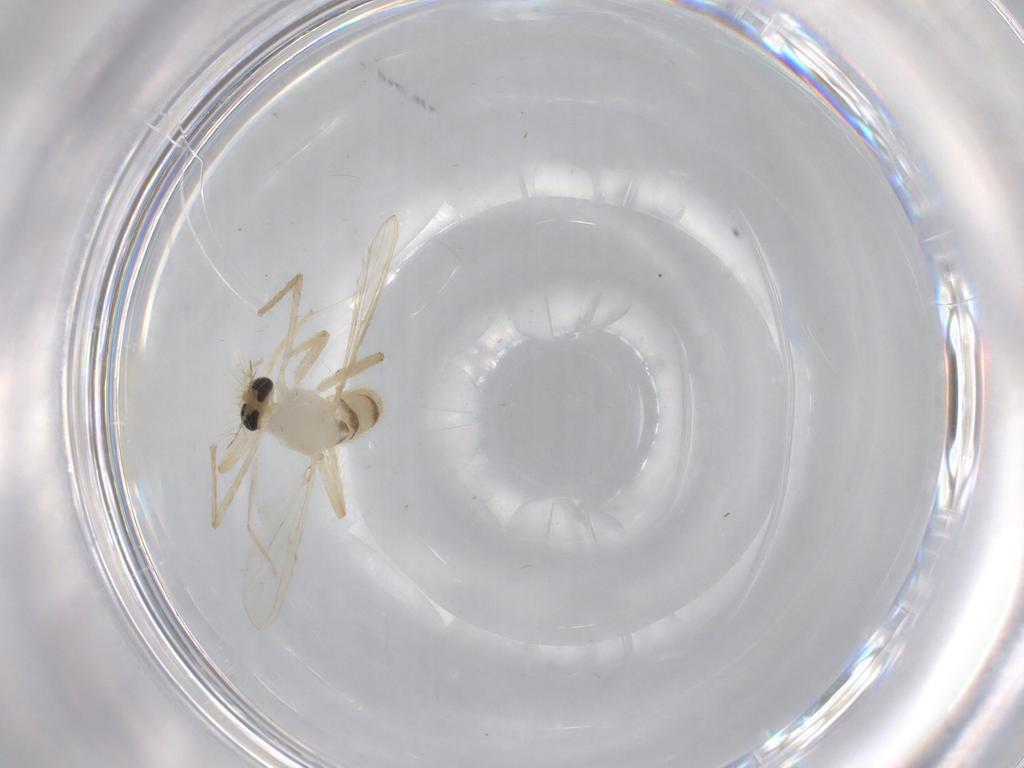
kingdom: Animalia
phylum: Arthropoda
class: Insecta
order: Diptera
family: Chironomidae
